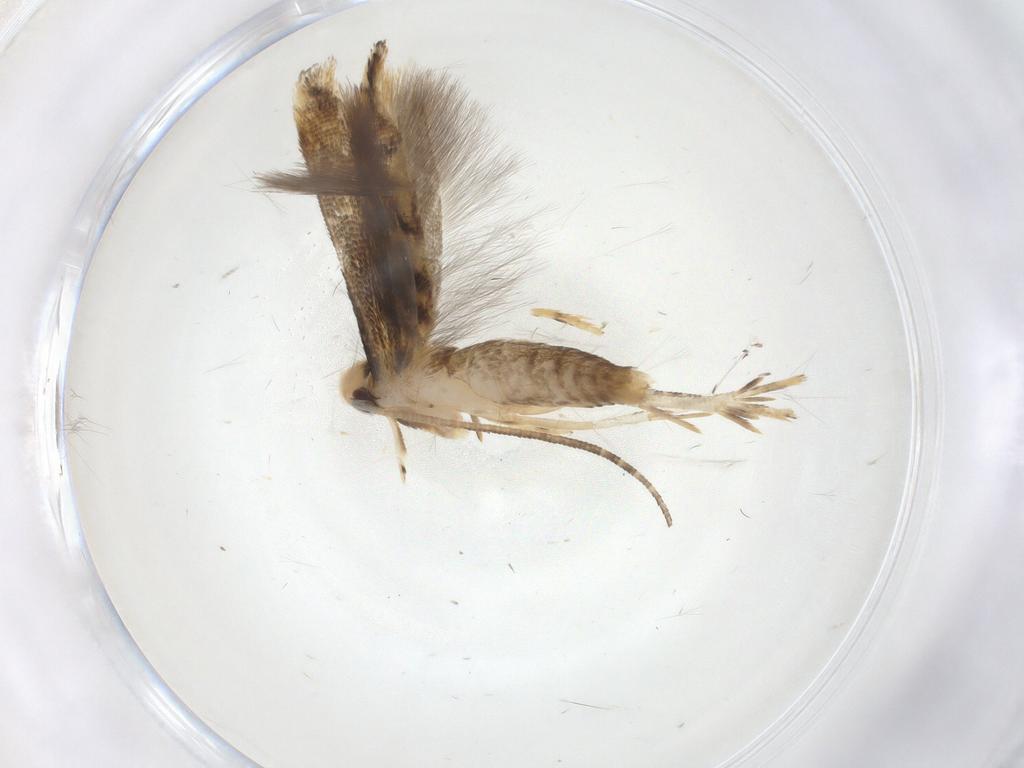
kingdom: Animalia
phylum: Arthropoda
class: Insecta
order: Lepidoptera
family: Momphidae
